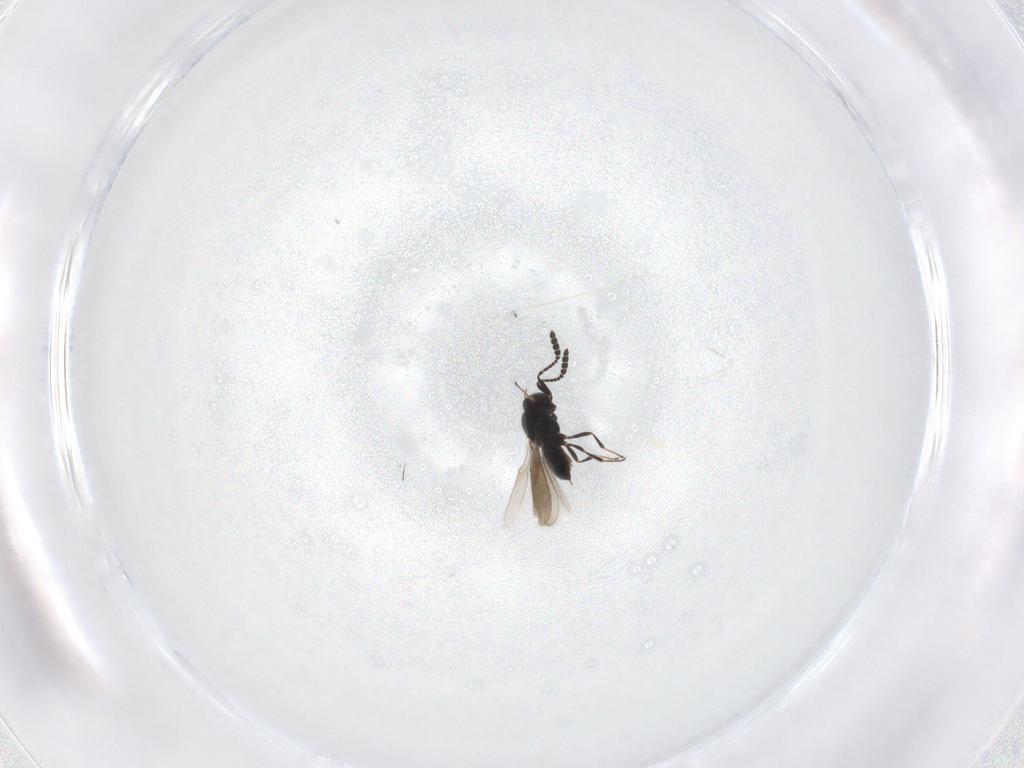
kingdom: Animalia
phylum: Arthropoda
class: Insecta
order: Hymenoptera
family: Scelionidae
